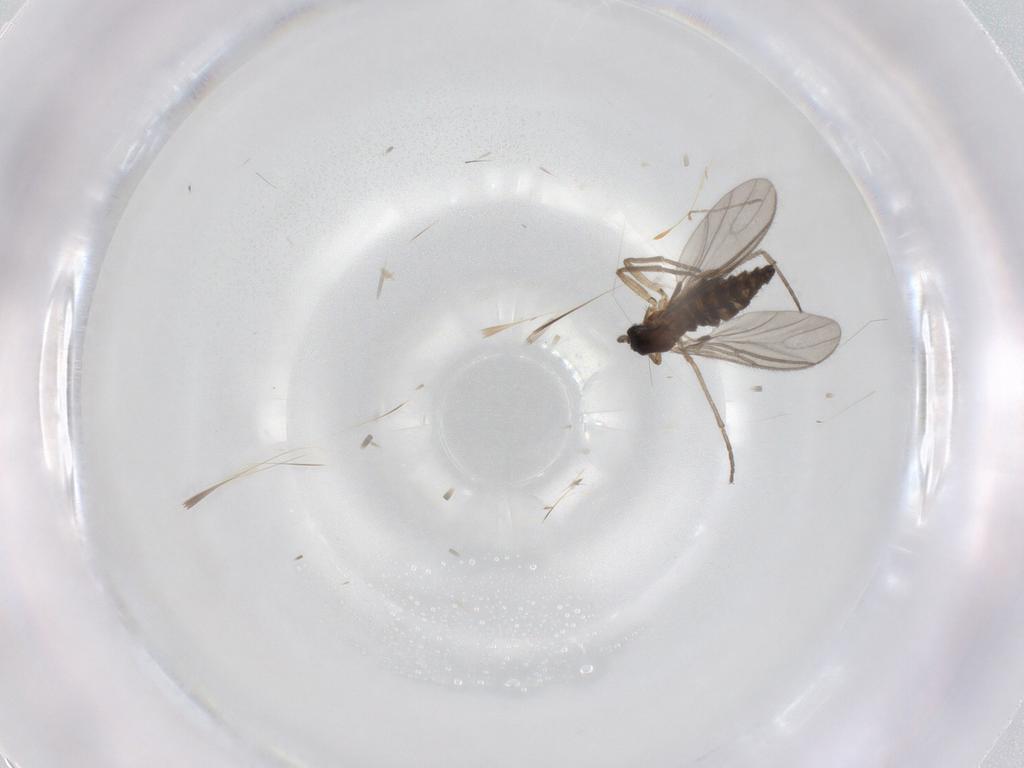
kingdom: Animalia
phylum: Arthropoda
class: Insecta
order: Diptera
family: Sciaridae
